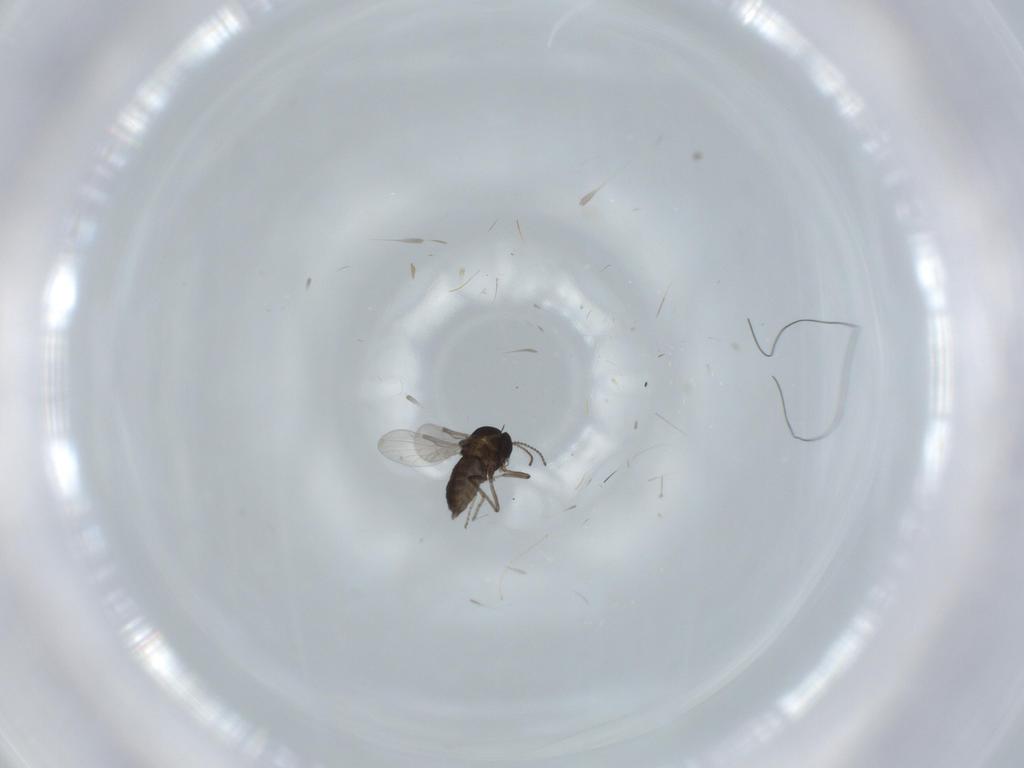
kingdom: Animalia
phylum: Arthropoda
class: Insecta
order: Diptera
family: Ceratopogonidae
